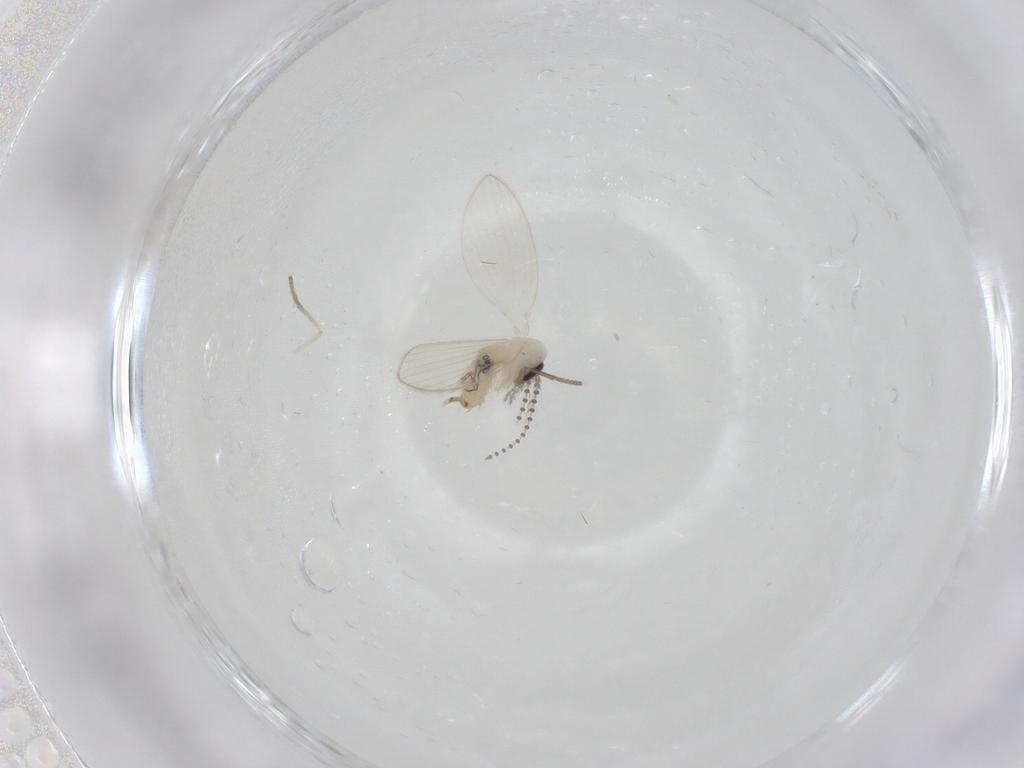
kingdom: Animalia
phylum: Arthropoda
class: Insecta
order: Diptera
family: Psychodidae
